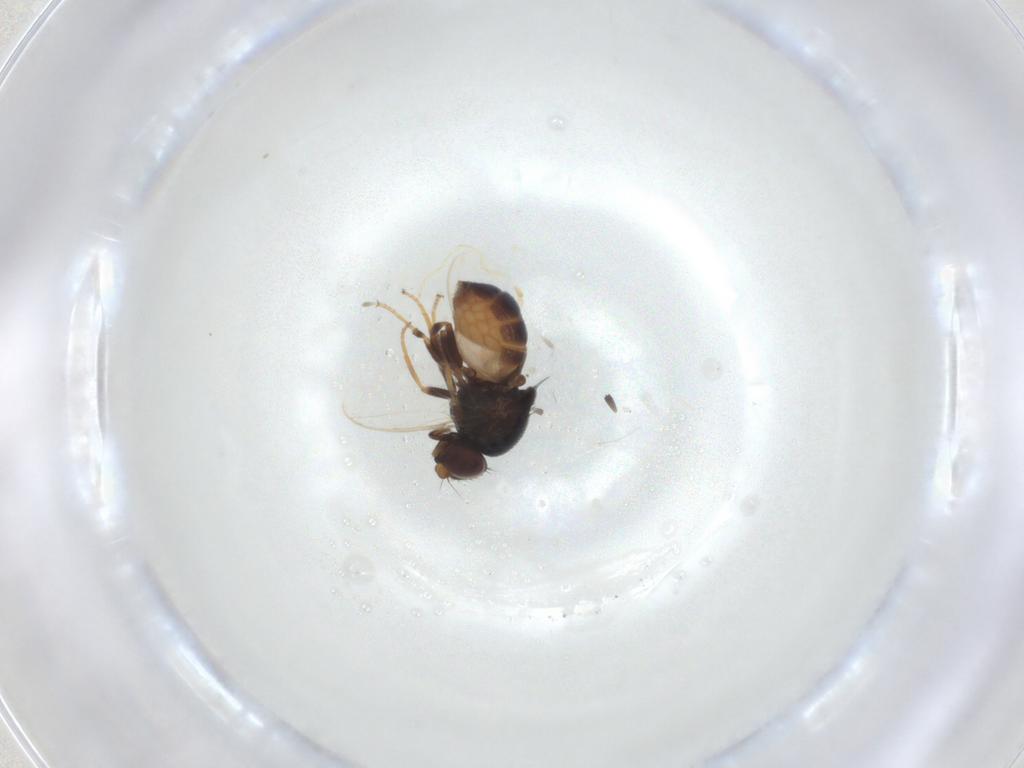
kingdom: Animalia
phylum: Arthropoda
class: Insecta
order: Diptera
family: Chloropidae
